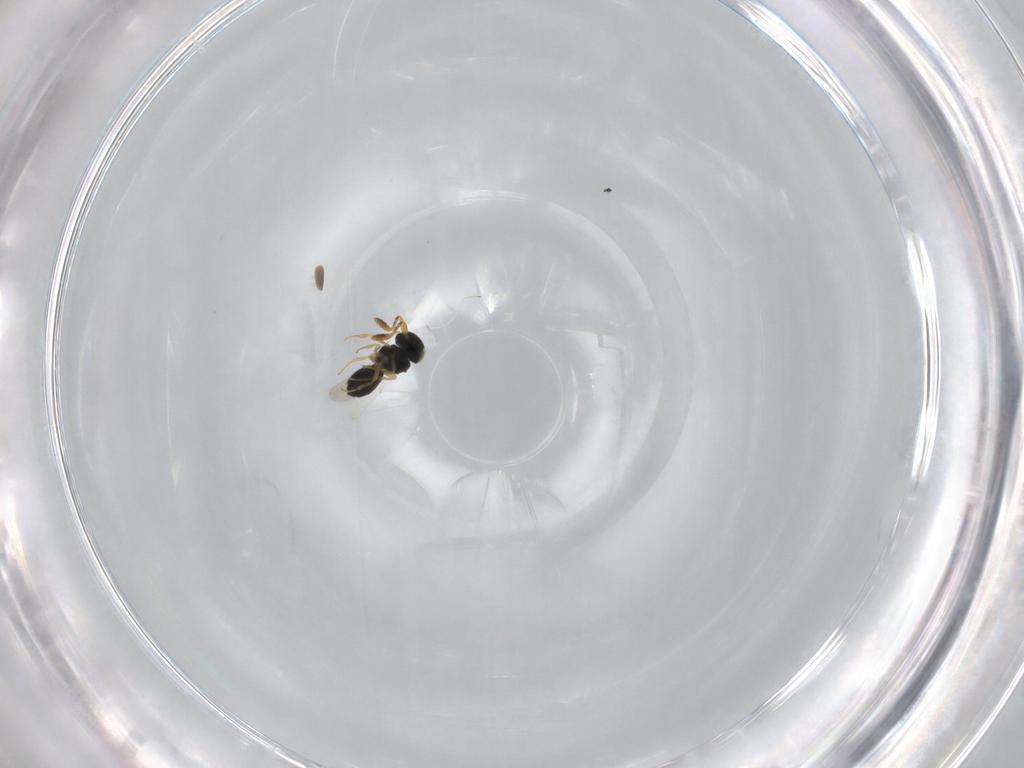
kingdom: Animalia
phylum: Arthropoda
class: Insecta
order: Hymenoptera
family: Scelionidae
